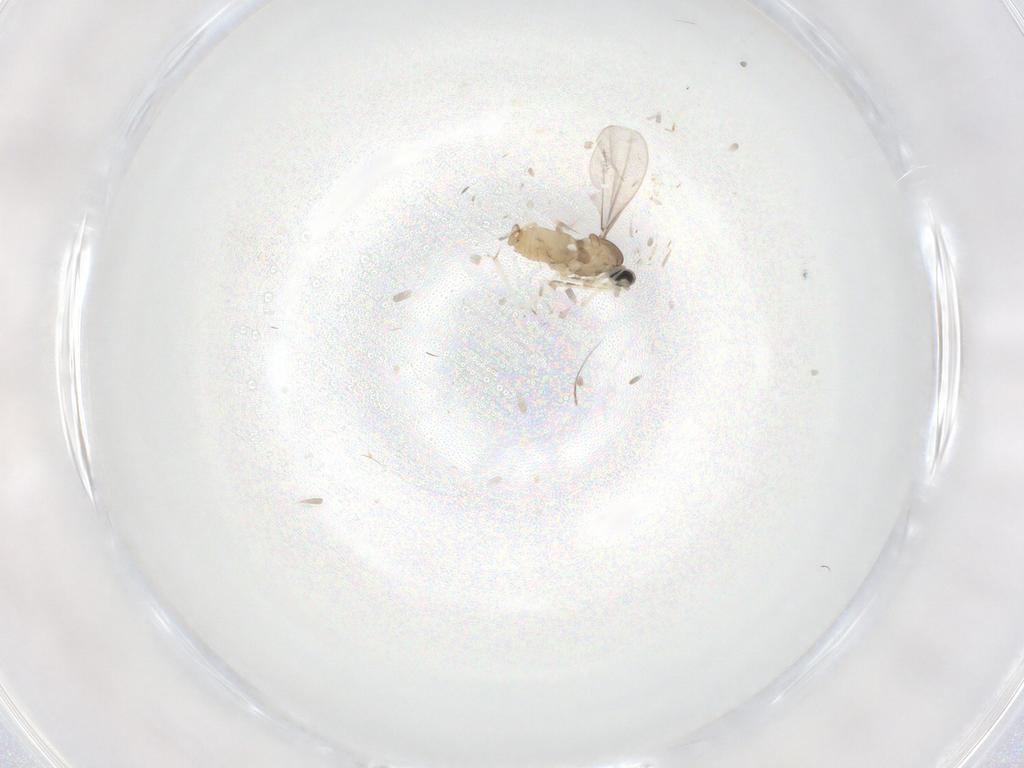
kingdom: Animalia
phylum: Arthropoda
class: Insecta
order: Diptera
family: Cecidomyiidae
